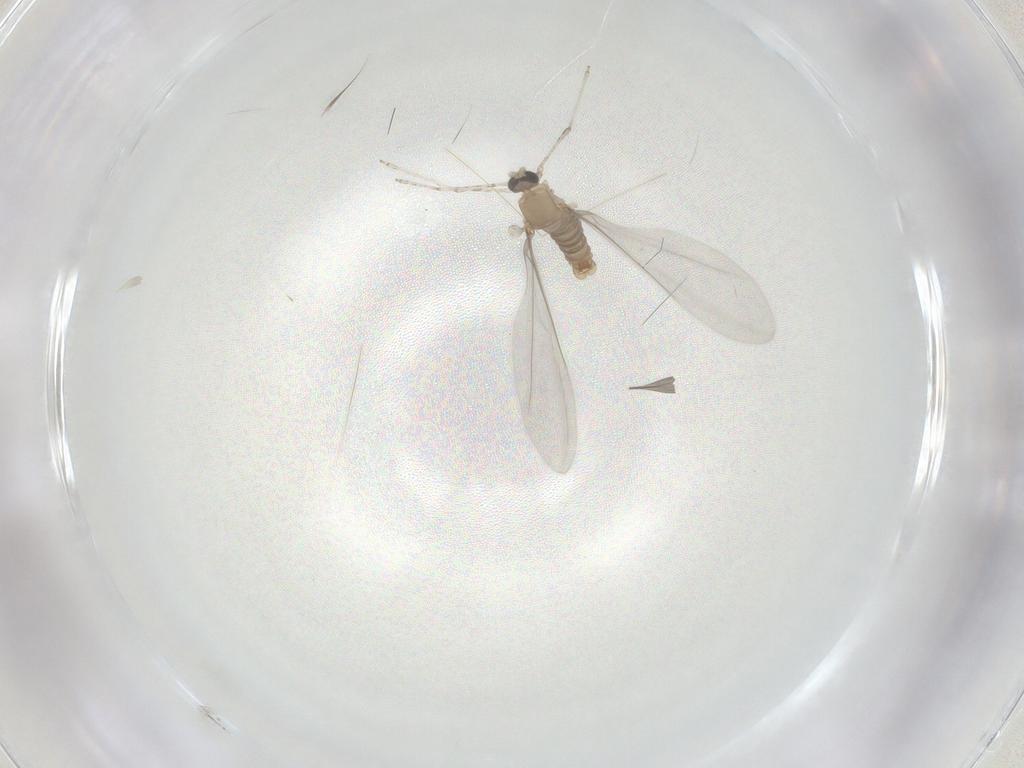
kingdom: Animalia
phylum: Arthropoda
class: Insecta
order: Diptera
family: Cecidomyiidae
